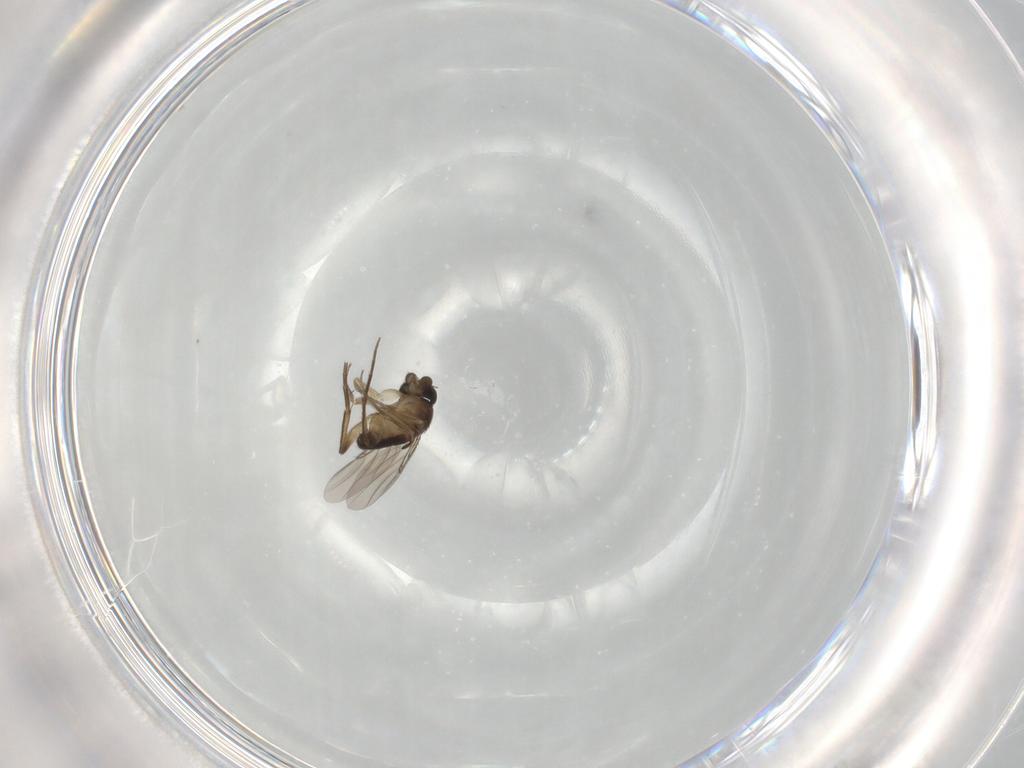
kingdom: Animalia
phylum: Arthropoda
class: Insecta
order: Diptera
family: Phoridae
